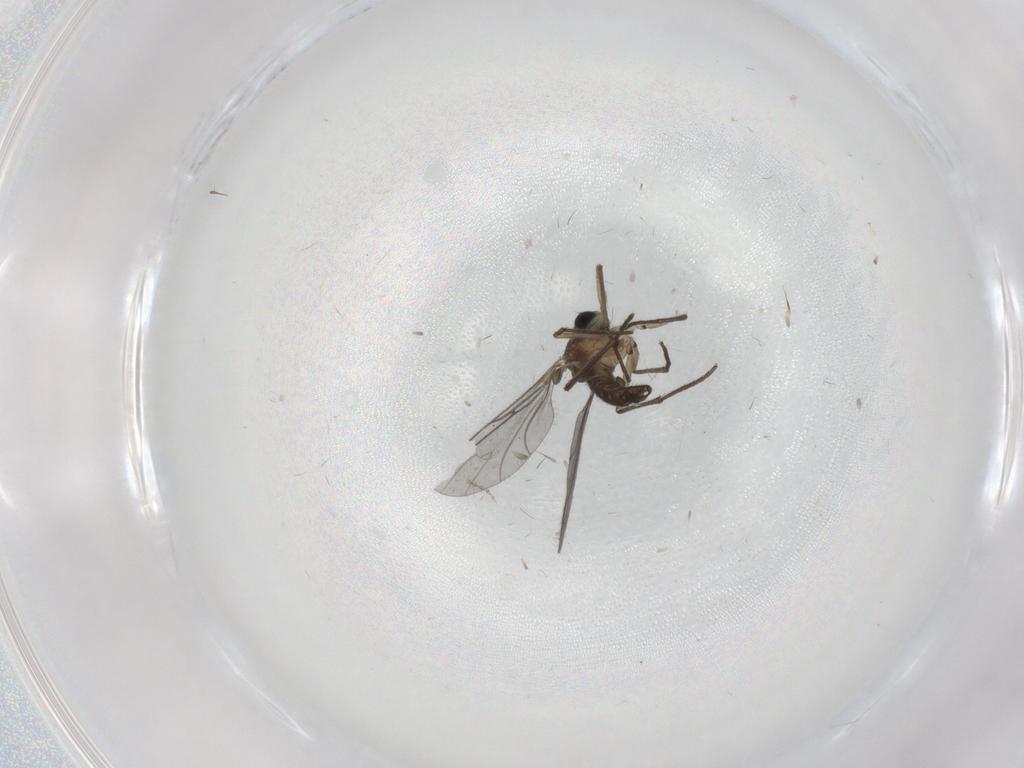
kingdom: Animalia
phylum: Arthropoda
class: Insecta
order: Diptera
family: Sciaridae
